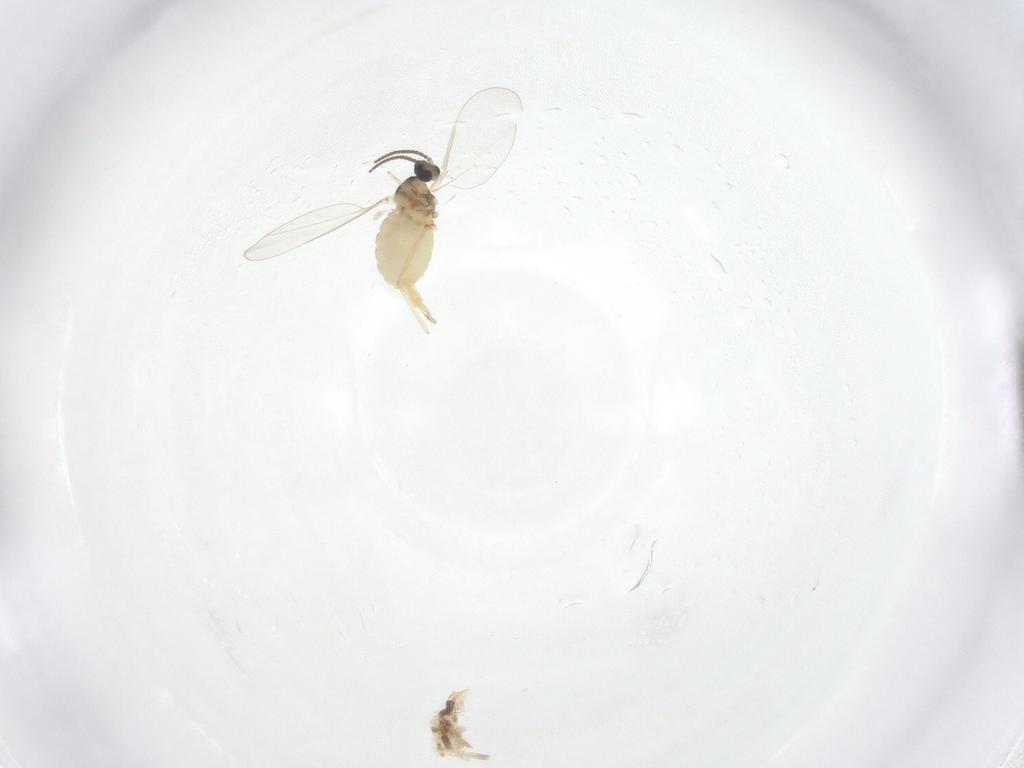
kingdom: Animalia
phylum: Arthropoda
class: Insecta
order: Diptera
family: Cecidomyiidae
